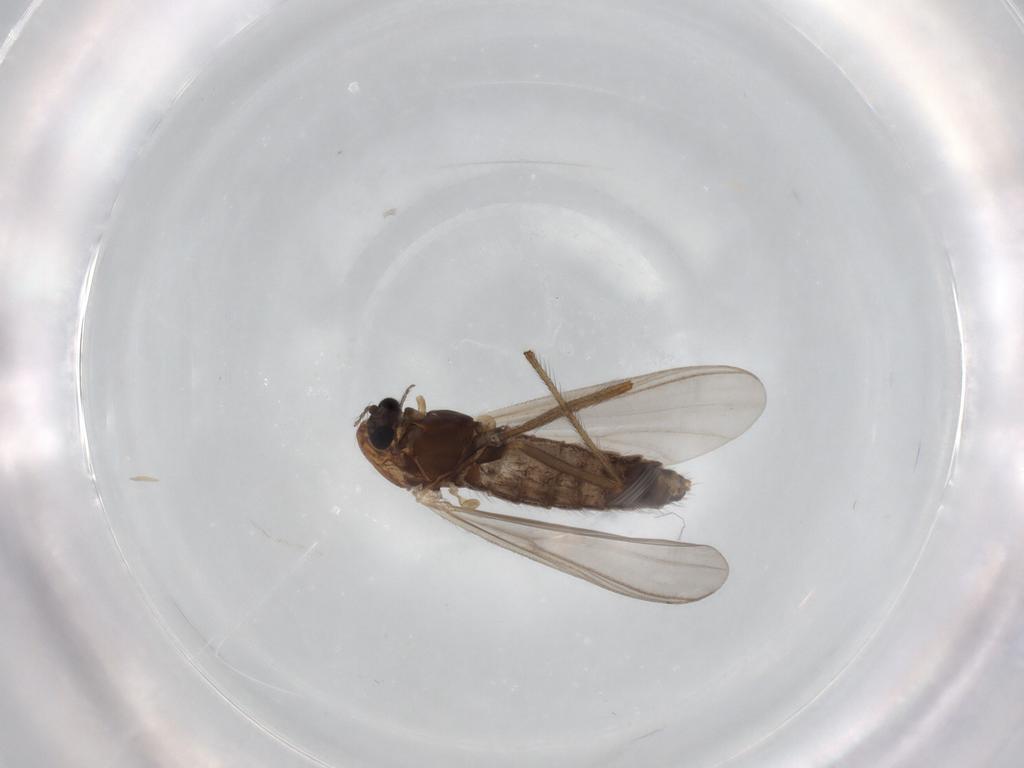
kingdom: Animalia
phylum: Arthropoda
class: Insecta
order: Diptera
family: Chironomidae
